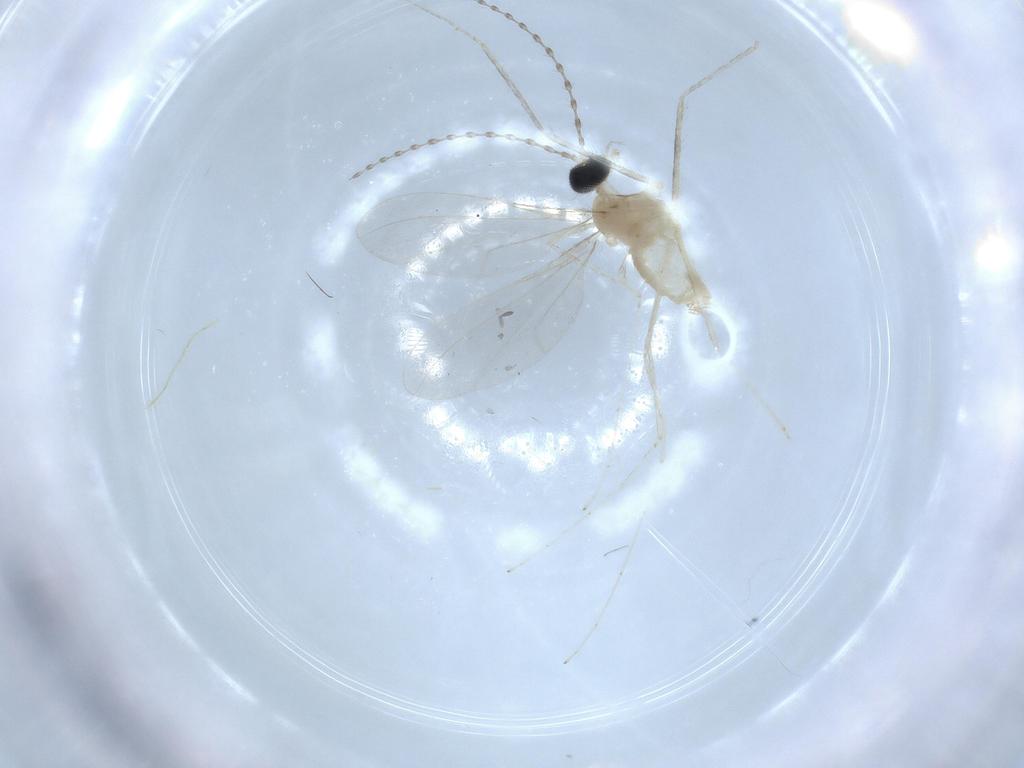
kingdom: Animalia
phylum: Arthropoda
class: Insecta
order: Diptera
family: Cecidomyiidae
